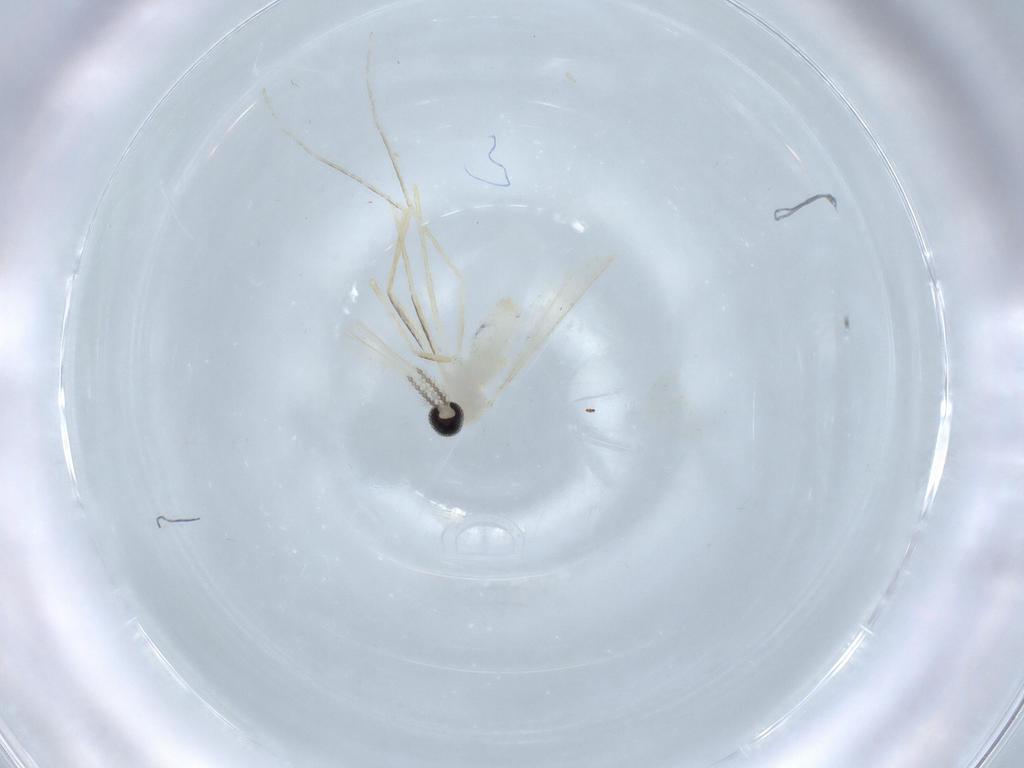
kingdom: Animalia
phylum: Arthropoda
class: Insecta
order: Diptera
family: Cecidomyiidae
